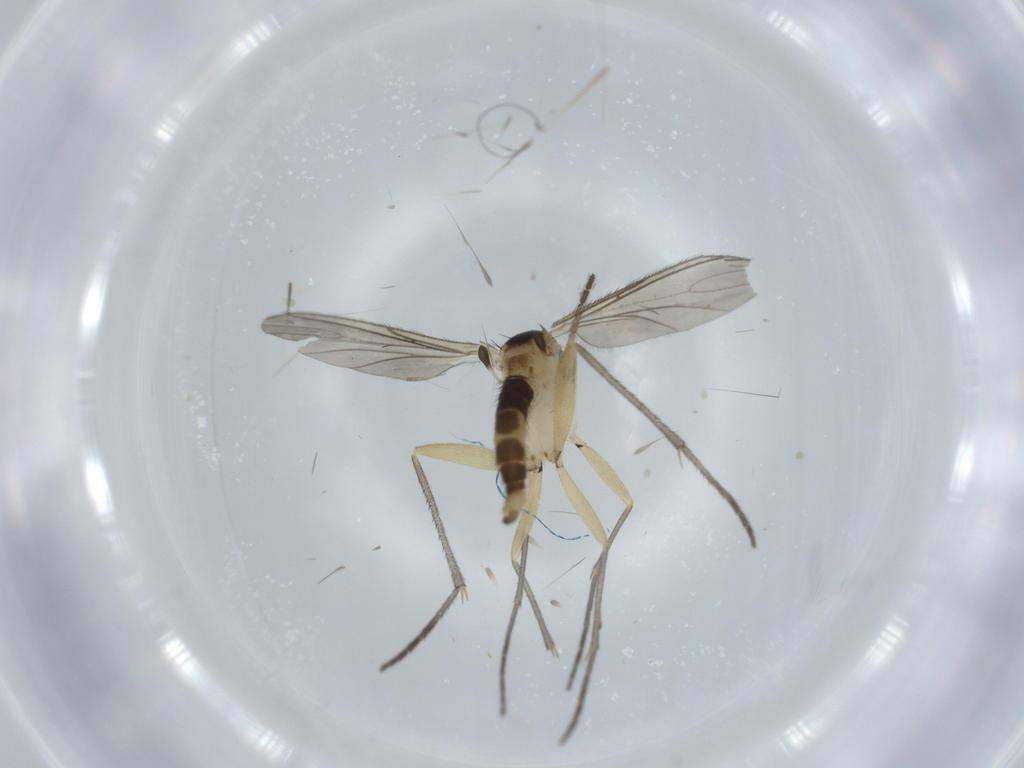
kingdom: Animalia
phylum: Arthropoda
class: Insecta
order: Diptera
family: Sciaridae
